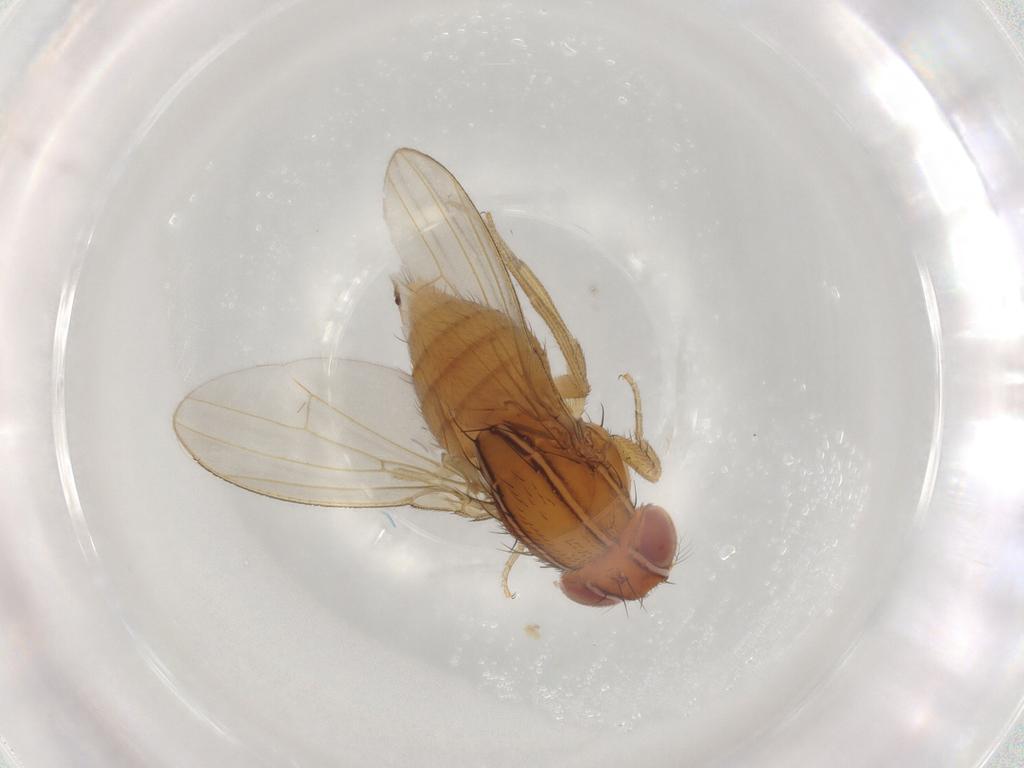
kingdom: Animalia
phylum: Arthropoda
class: Insecta
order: Diptera
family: Drosophilidae
